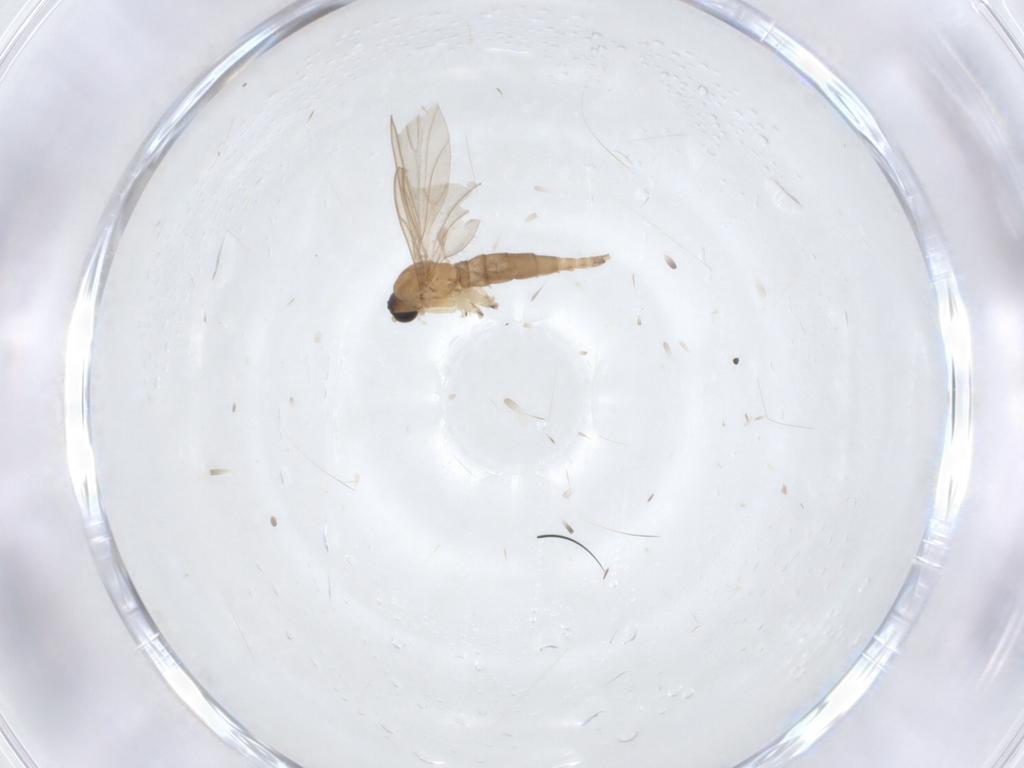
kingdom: Animalia
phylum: Arthropoda
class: Insecta
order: Diptera
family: Sciaridae
